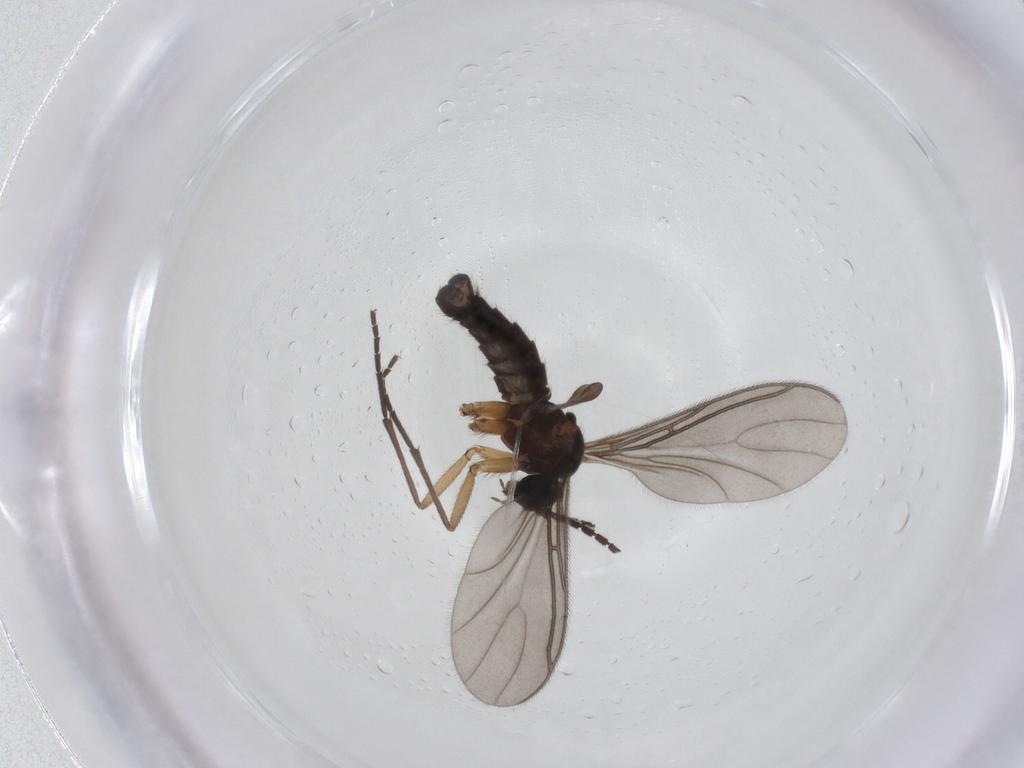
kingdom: Animalia
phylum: Arthropoda
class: Insecta
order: Diptera
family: Sciaridae
